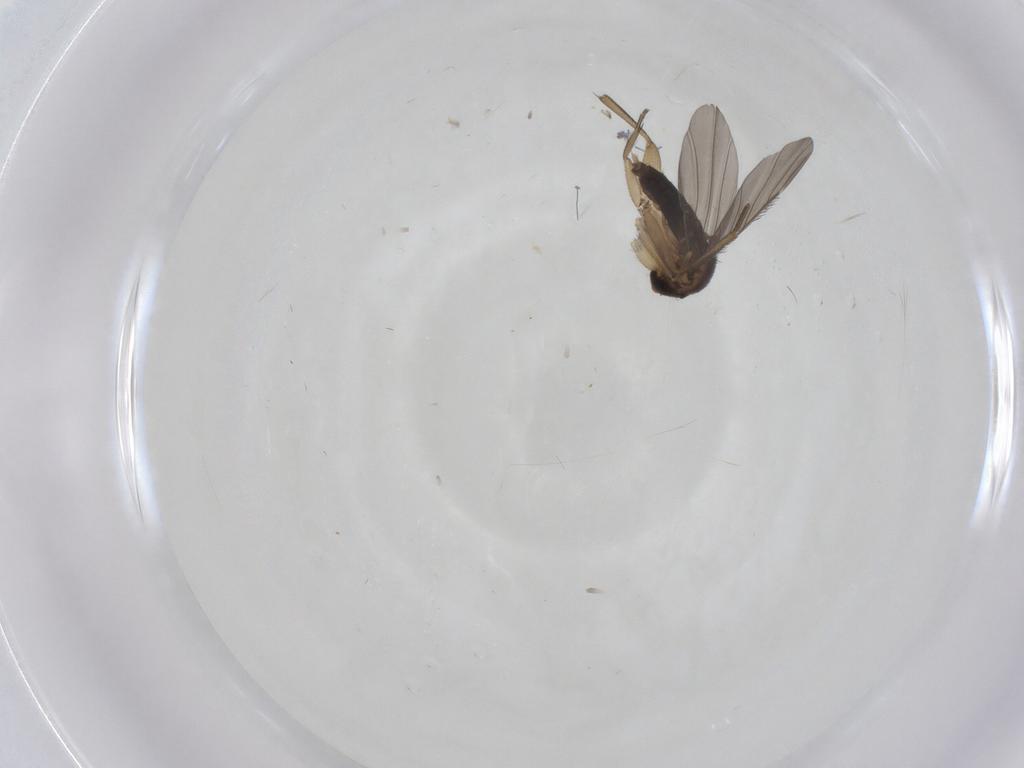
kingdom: Animalia
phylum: Arthropoda
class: Insecta
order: Diptera
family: Phoridae
